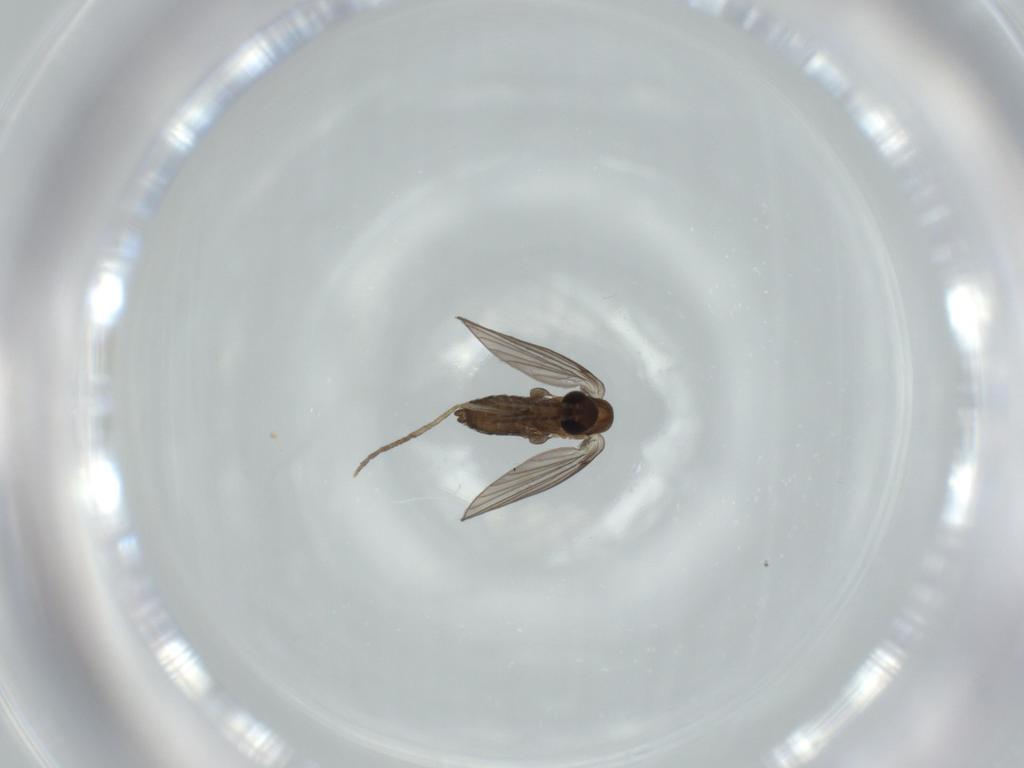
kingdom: Animalia
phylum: Arthropoda
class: Insecta
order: Diptera
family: Psychodidae
